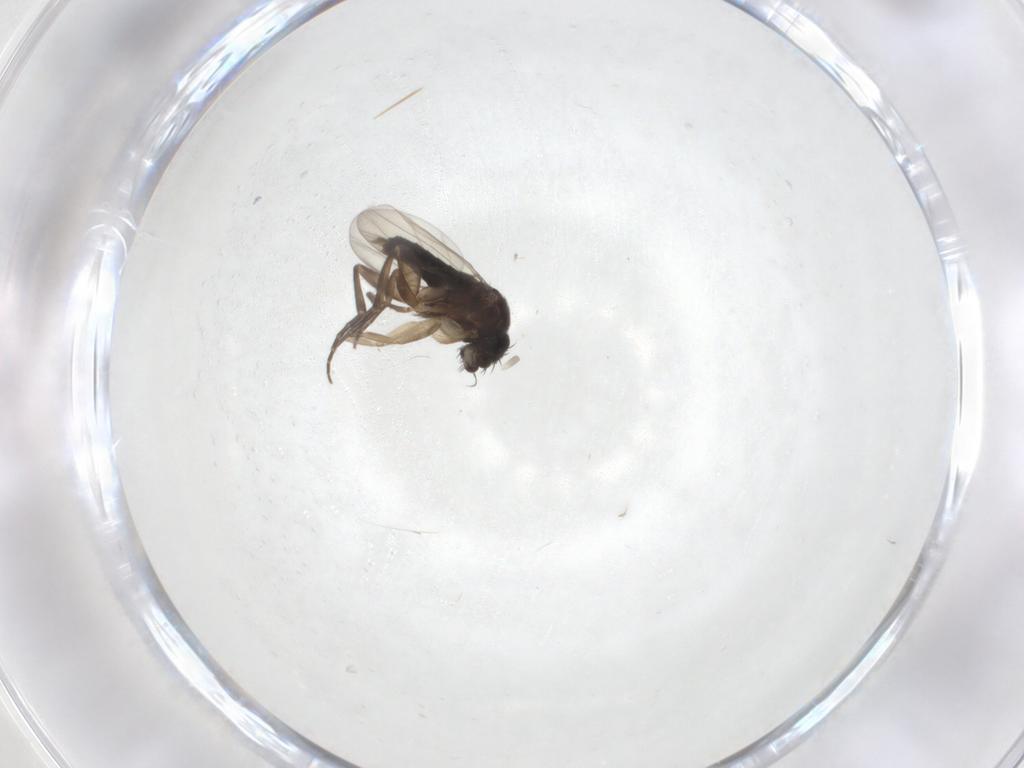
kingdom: Animalia
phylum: Arthropoda
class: Insecta
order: Diptera
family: Phoridae
